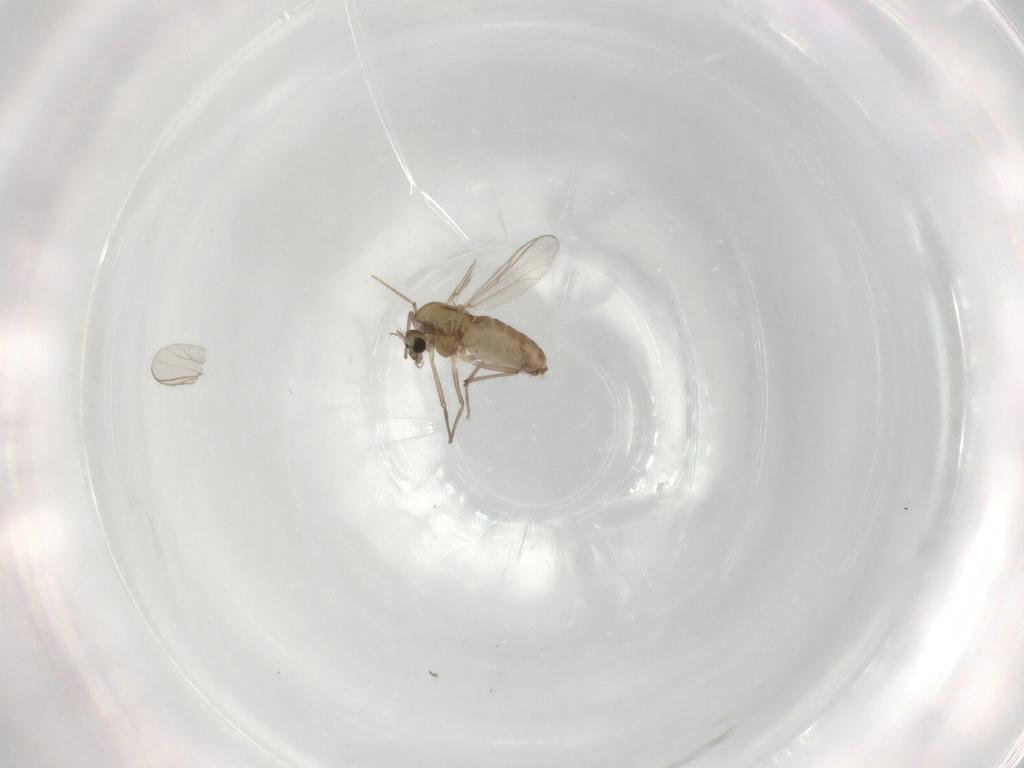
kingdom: Animalia
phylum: Arthropoda
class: Insecta
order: Diptera
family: Chironomidae
